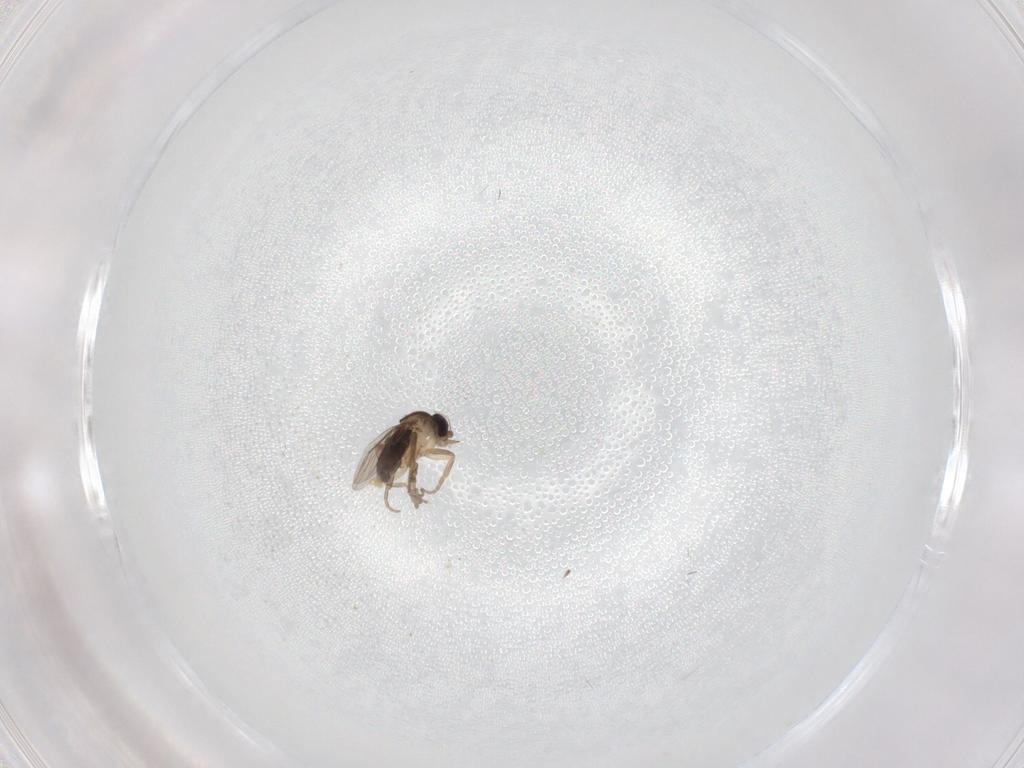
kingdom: Animalia
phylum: Arthropoda
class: Insecta
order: Diptera
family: Cecidomyiidae
